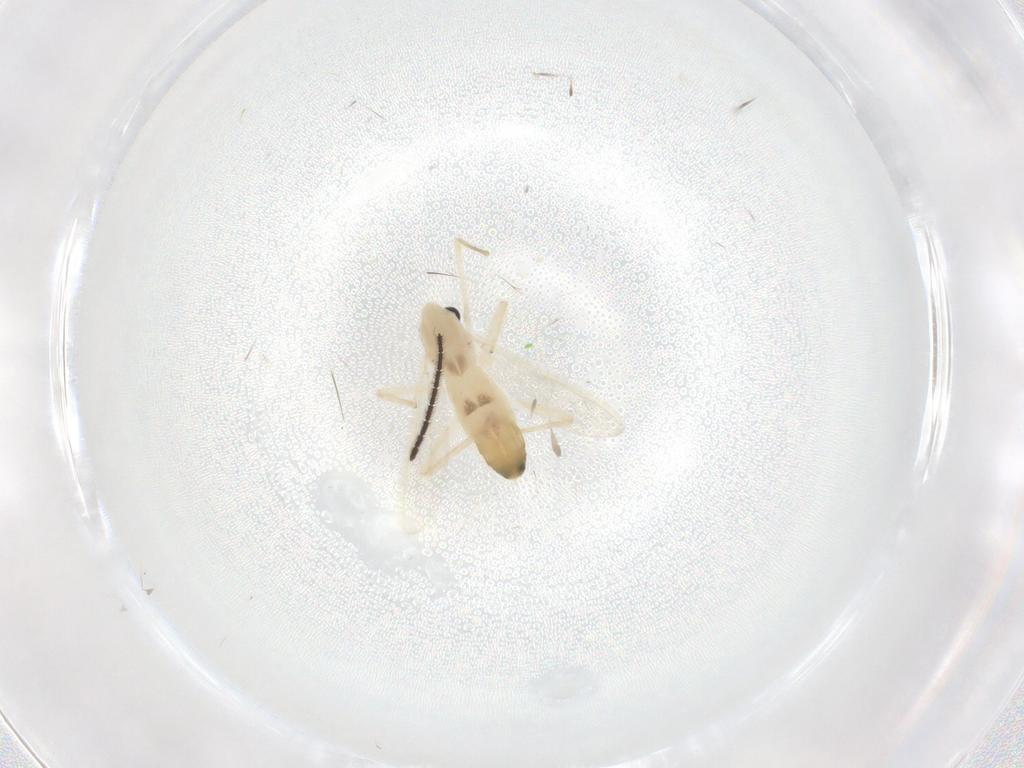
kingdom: Animalia
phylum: Arthropoda
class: Insecta
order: Diptera
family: Chironomidae
